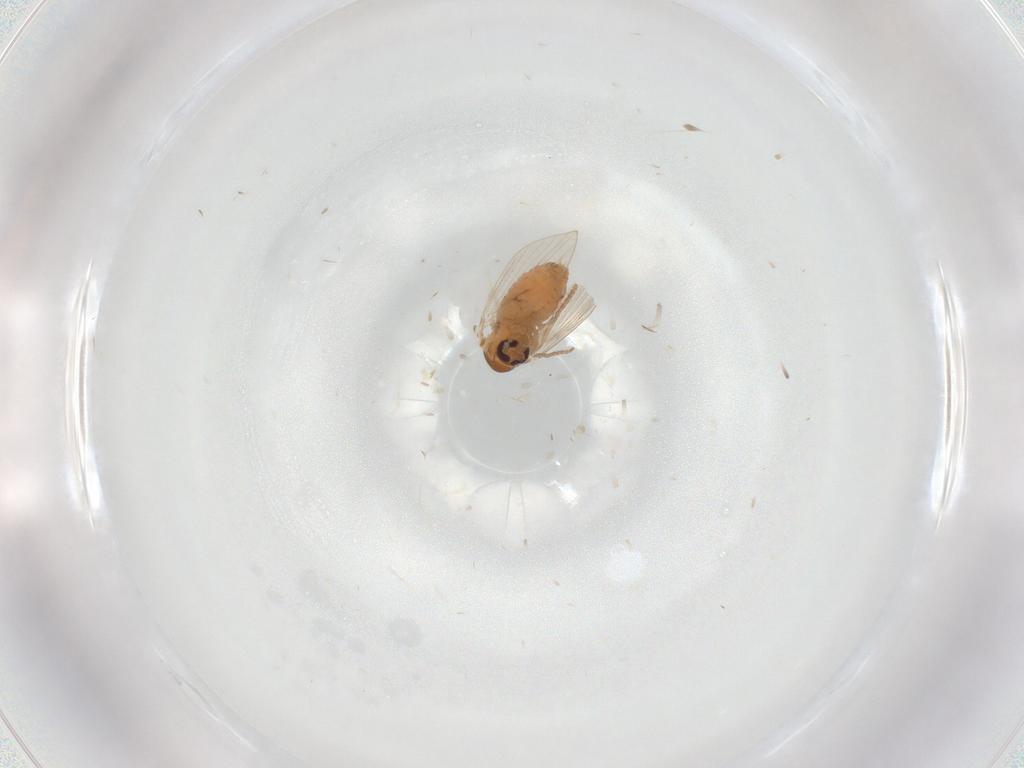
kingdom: Animalia
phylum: Arthropoda
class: Insecta
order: Diptera
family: Psychodidae
